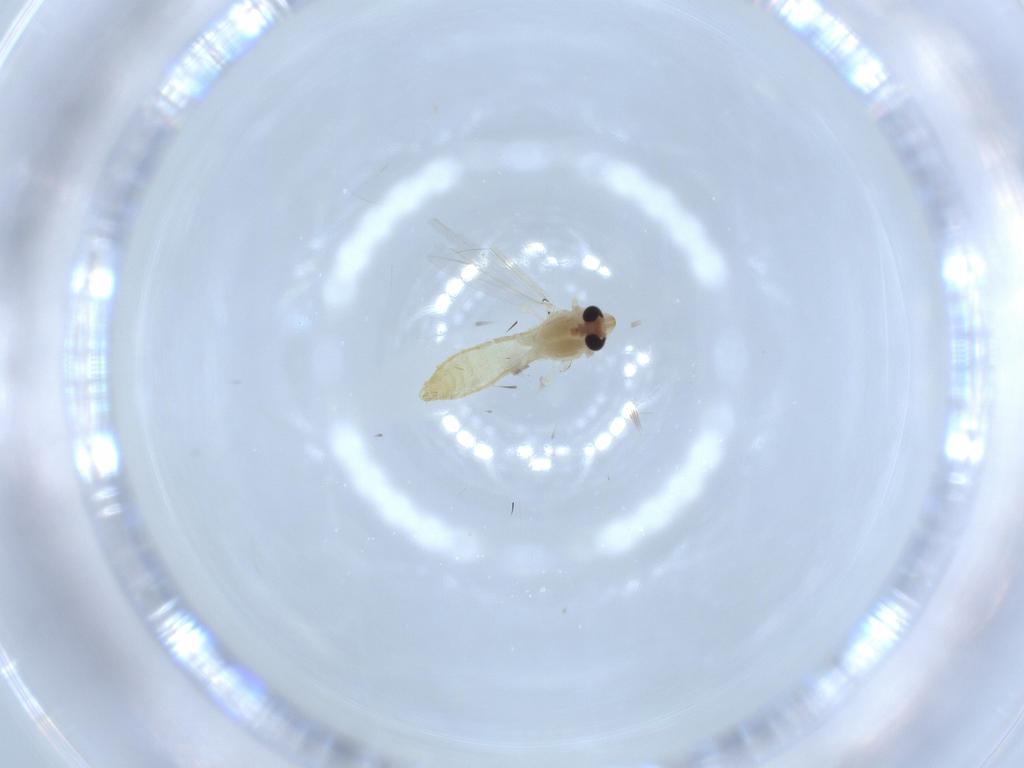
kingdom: Animalia
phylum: Arthropoda
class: Insecta
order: Diptera
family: Chironomidae
